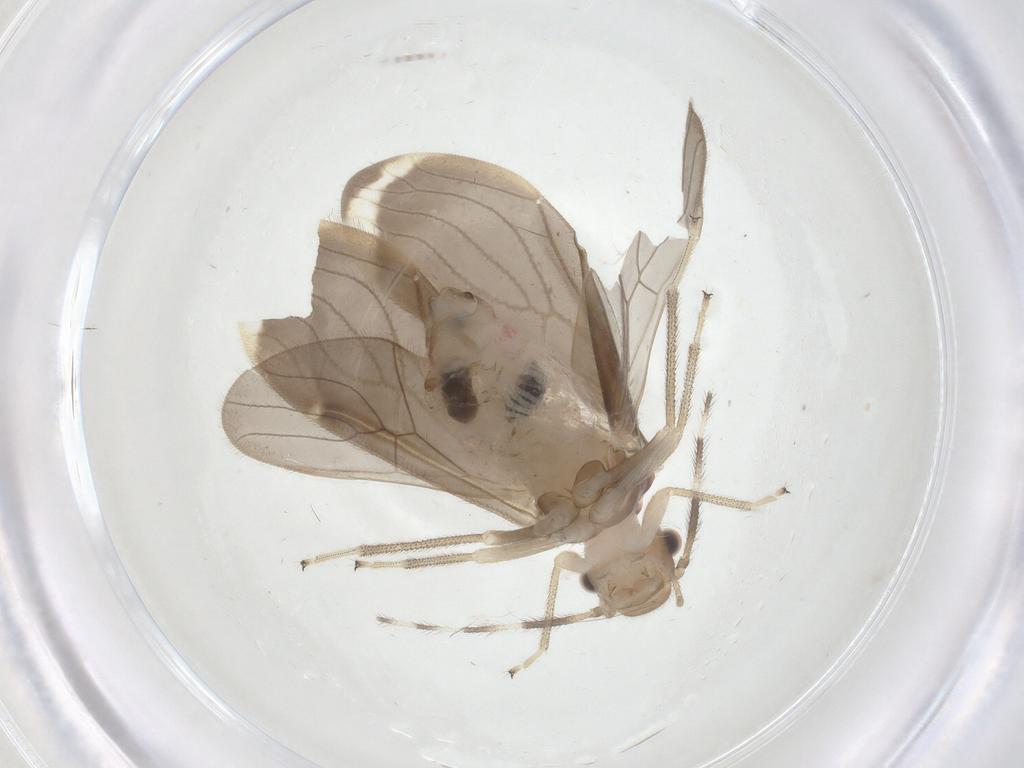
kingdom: Animalia
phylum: Arthropoda
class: Insecta
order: Psocodea
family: Amphipsocidae
